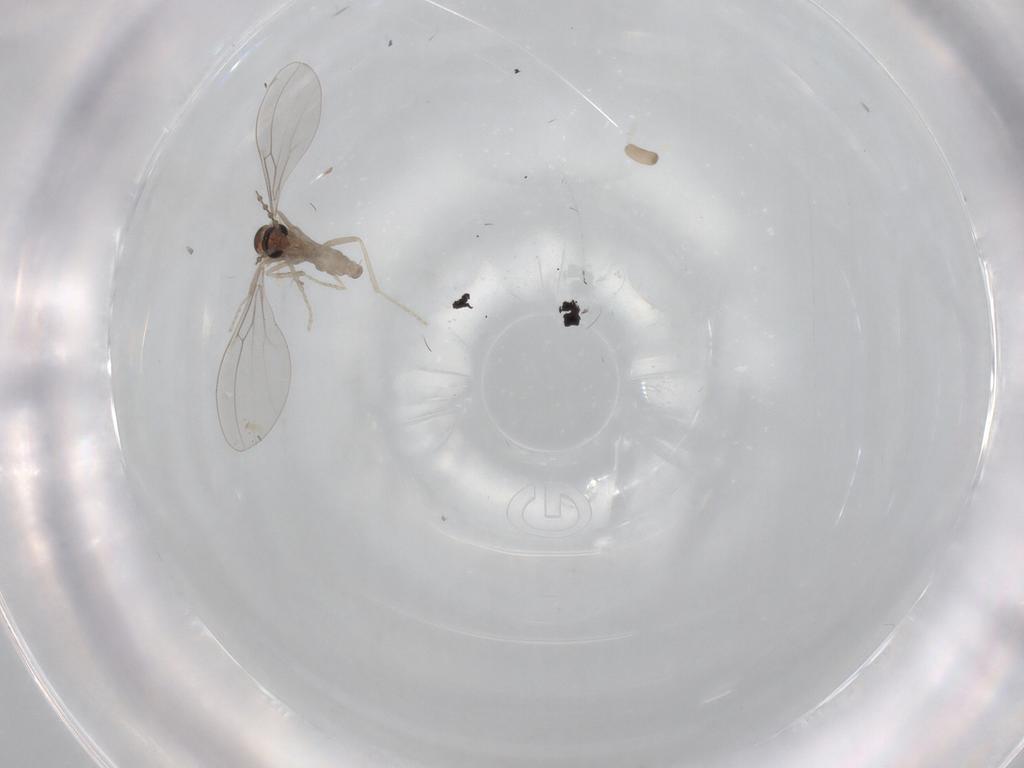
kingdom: Animalia
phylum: Arthropoda
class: Insecta
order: Diptera
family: Sciaridae
